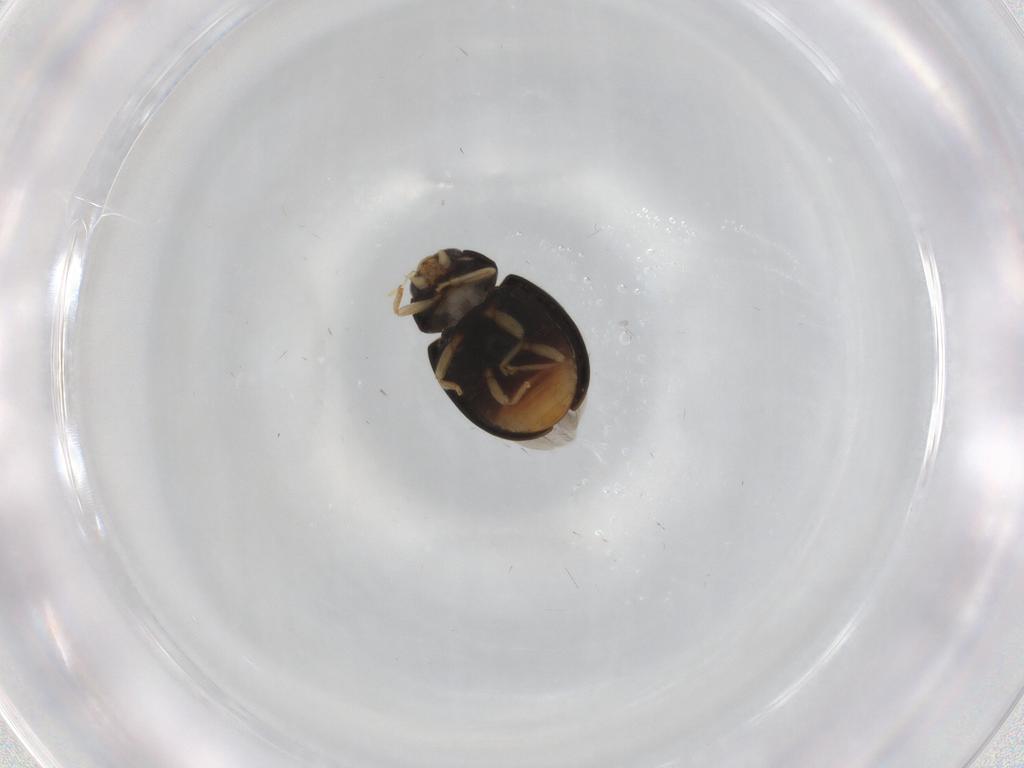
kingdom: Animalia
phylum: Arthropoda
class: Insecta
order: Coleoptera
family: Coccinellidae
